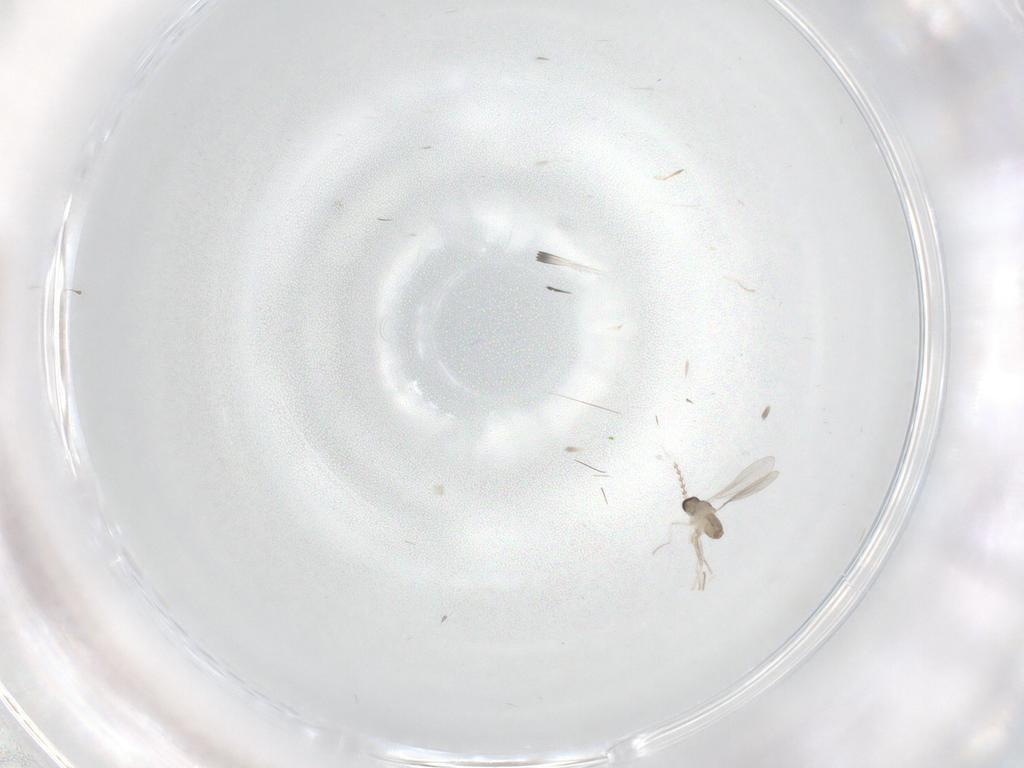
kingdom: Animalia
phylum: Arthropoda
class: Insecta
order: Diptera
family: Cecidomyiidae
